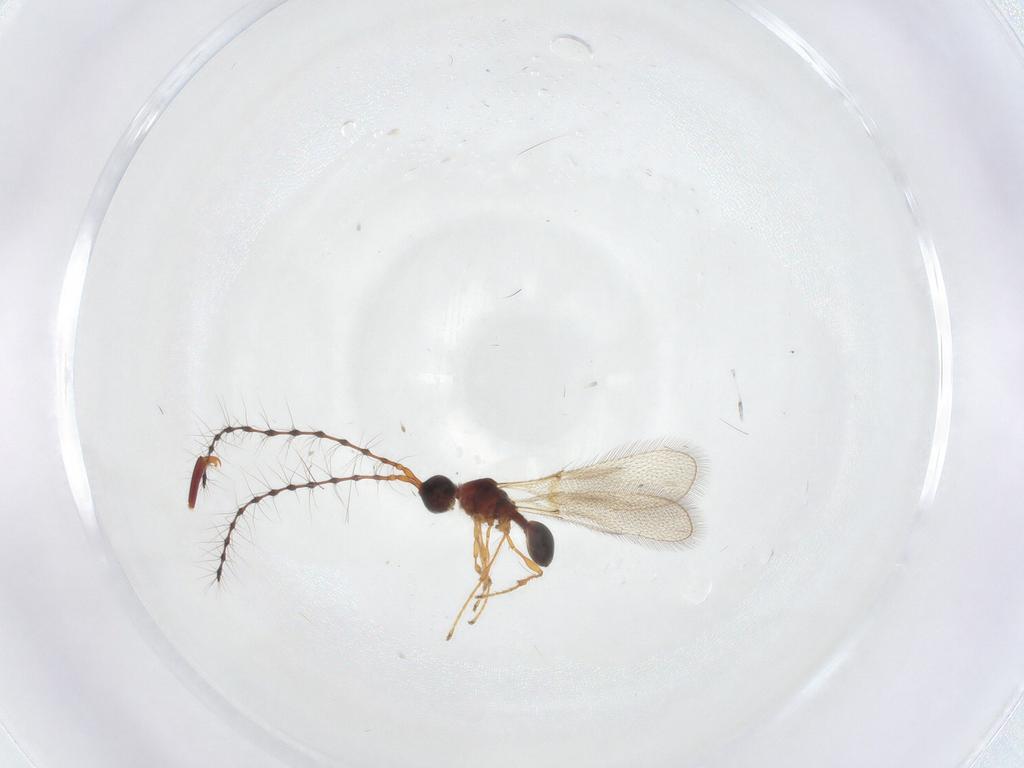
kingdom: Animalia
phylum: Arthropoda
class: Insecta
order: Hymenoptera
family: Diapriidae
